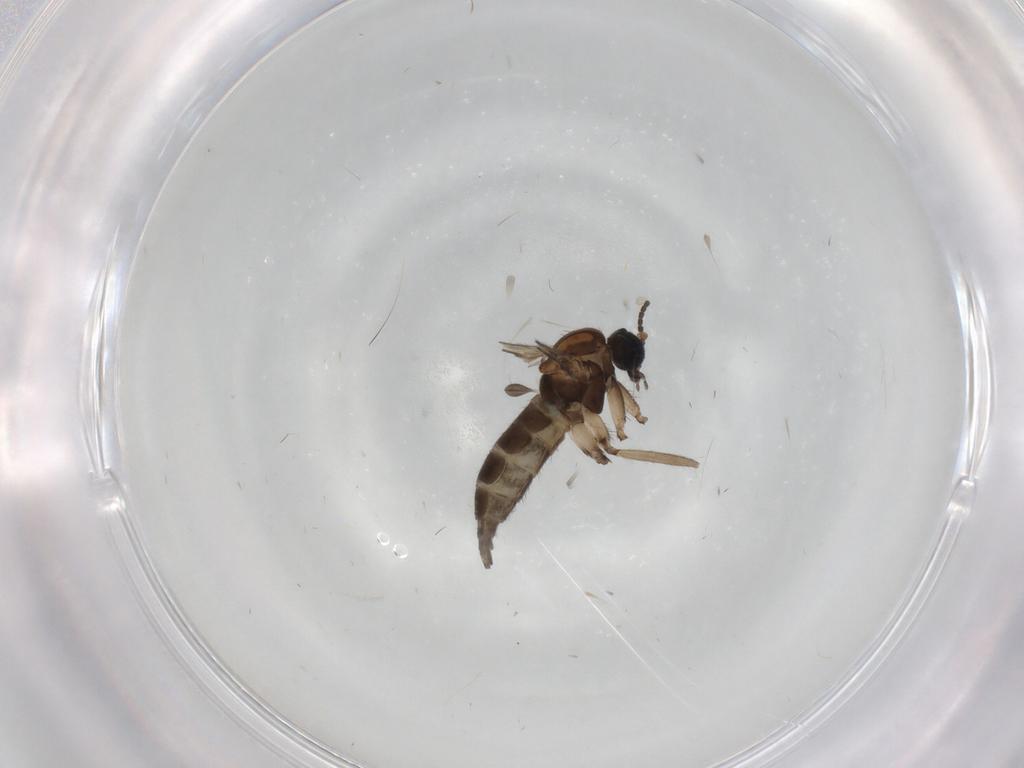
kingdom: Animalia
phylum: Arthropoda
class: Insecta
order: Diptera
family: Sciaridae
